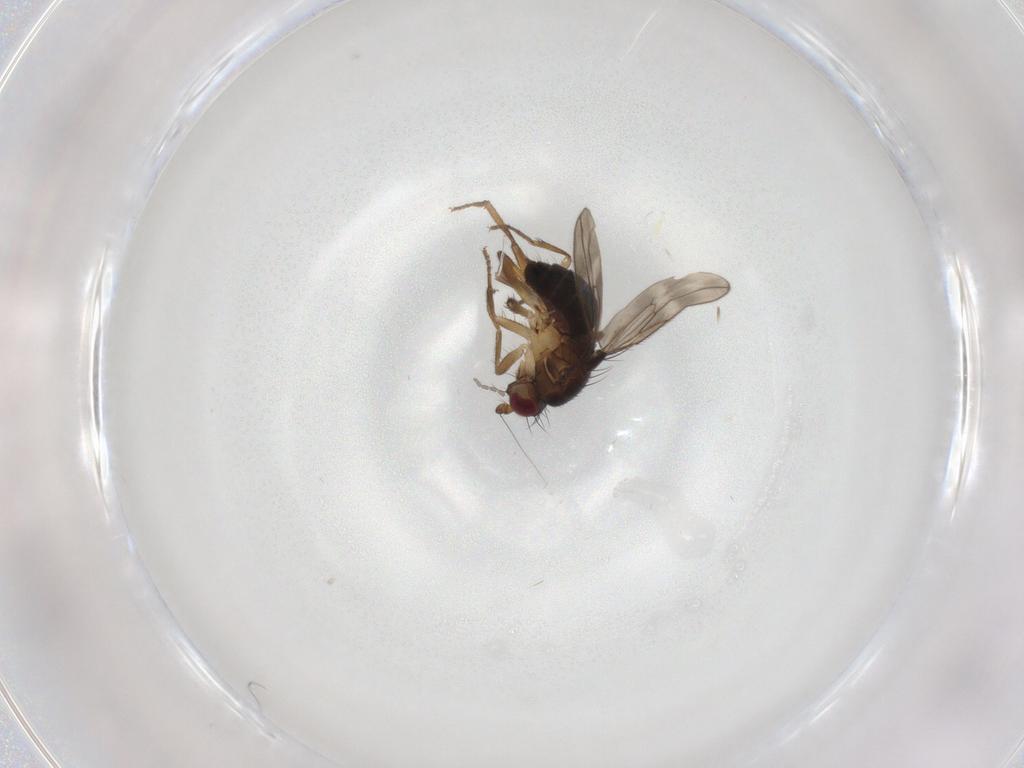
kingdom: Animalia
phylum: Arthropoda
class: Insecta
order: Diptera
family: Sphaeroceridae
